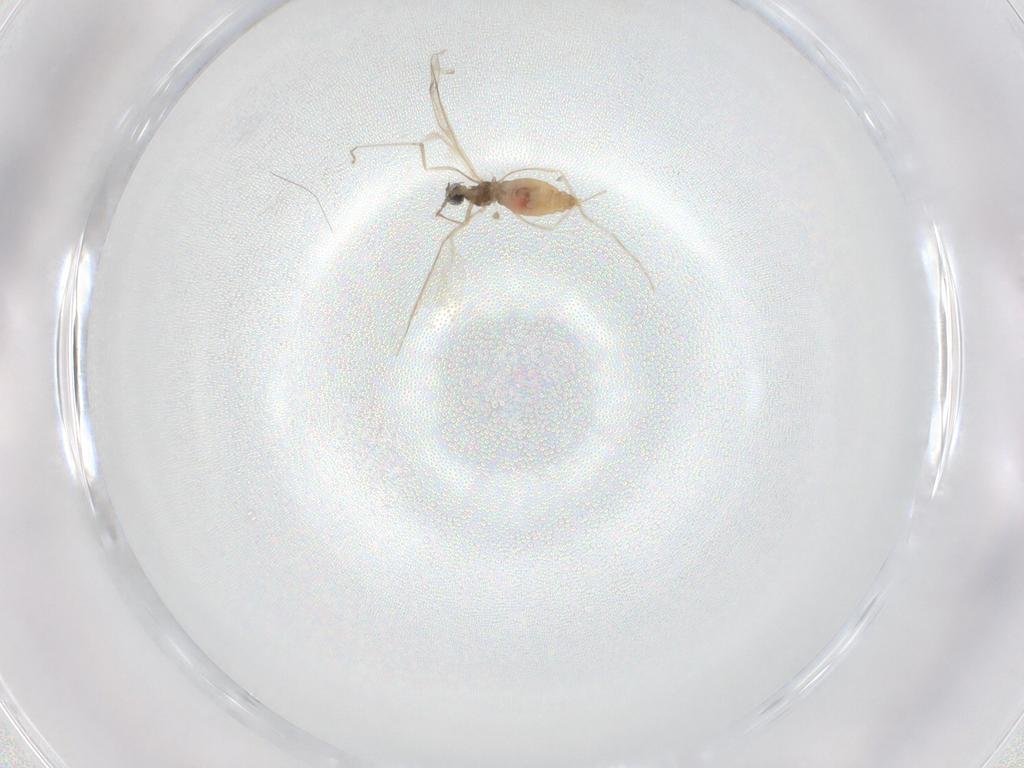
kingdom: Animalia
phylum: Arthropoda
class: Insecta
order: Diptera
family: Cecidomyiidae
